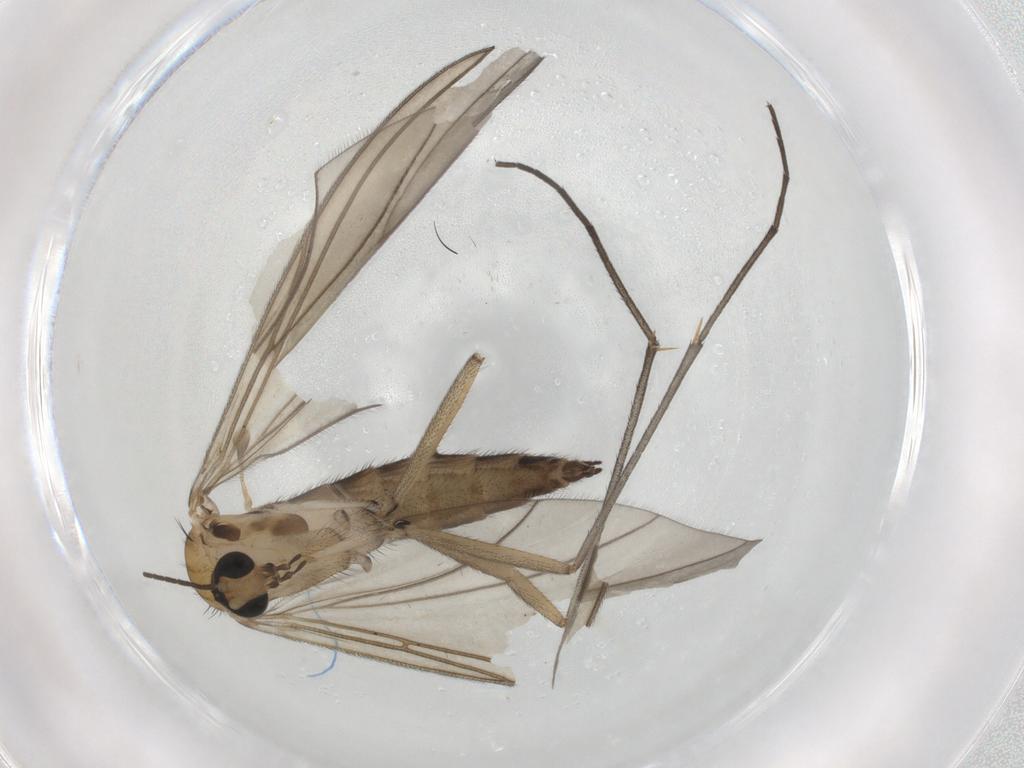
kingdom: Animalia
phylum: Arthropoda
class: Insecta
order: Diptera
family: Sciaridae
